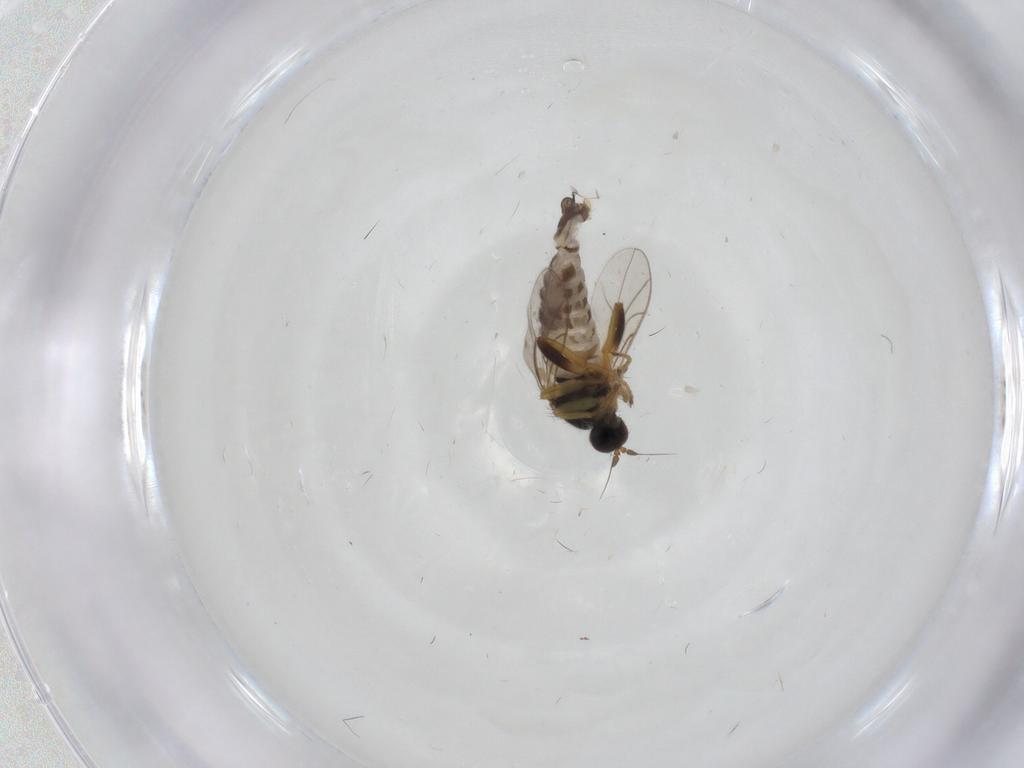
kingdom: Animalia
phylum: Arthropoda
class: Insecta
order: Diptera
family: Hybotidae
